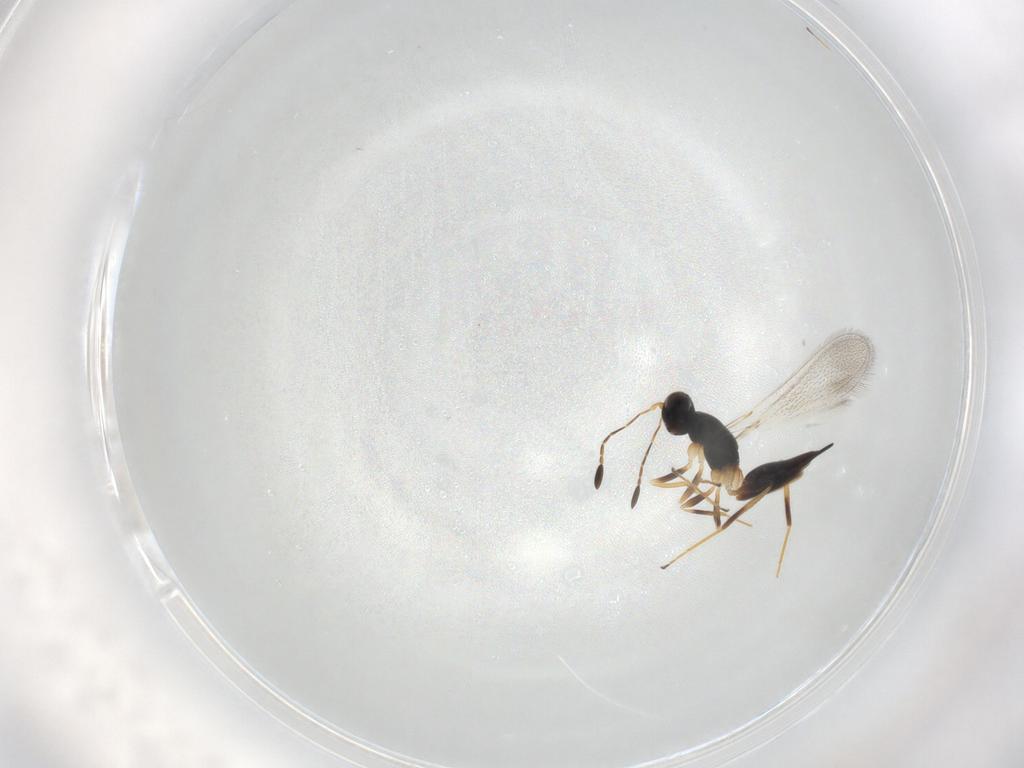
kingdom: Animalia
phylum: Arthropoda
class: Insecta
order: Hymenoptera
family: Mymaridae
